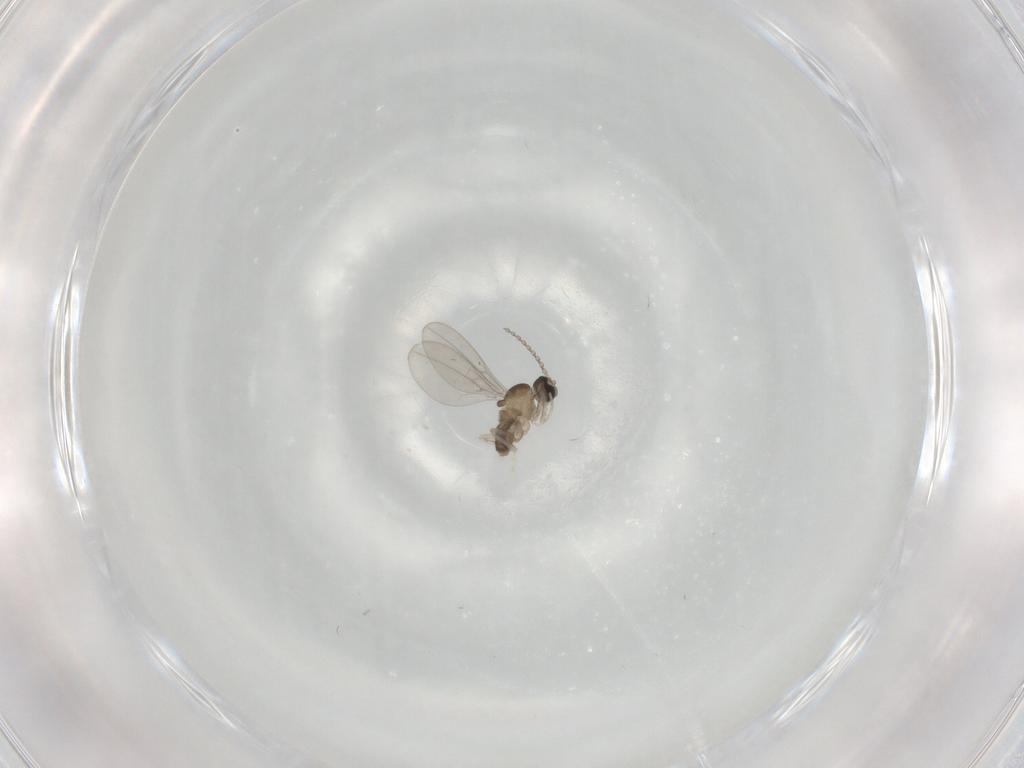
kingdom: Animalia
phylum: Arthropoda
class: Insecta
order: Diptera
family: Cecidomyiidae
